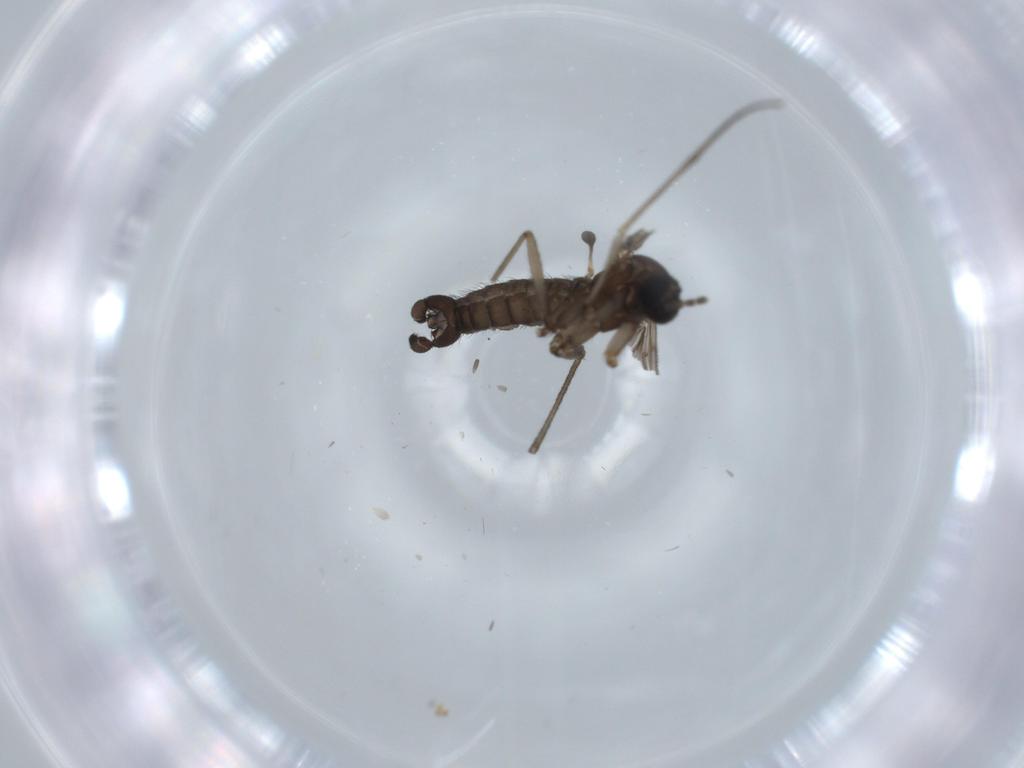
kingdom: Animalia
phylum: Arthropoda
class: Insecta
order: Diptera
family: Sciaridae
